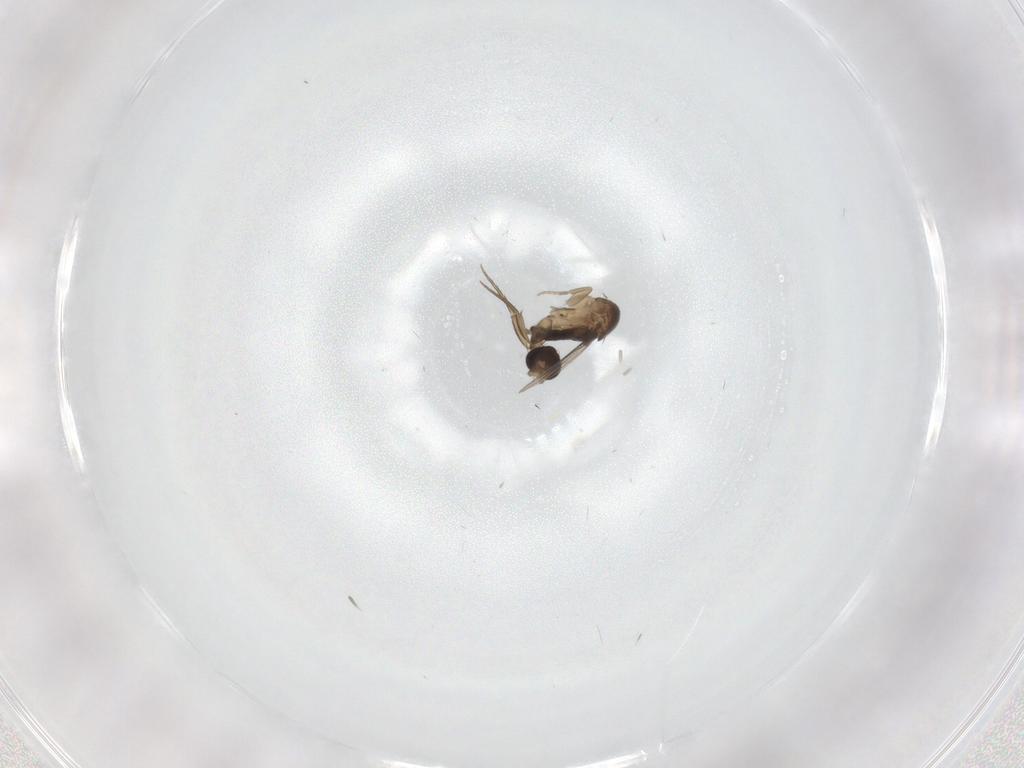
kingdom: Animalia
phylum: Arthropoda
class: Insecta
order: Diptera
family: Phoridae
